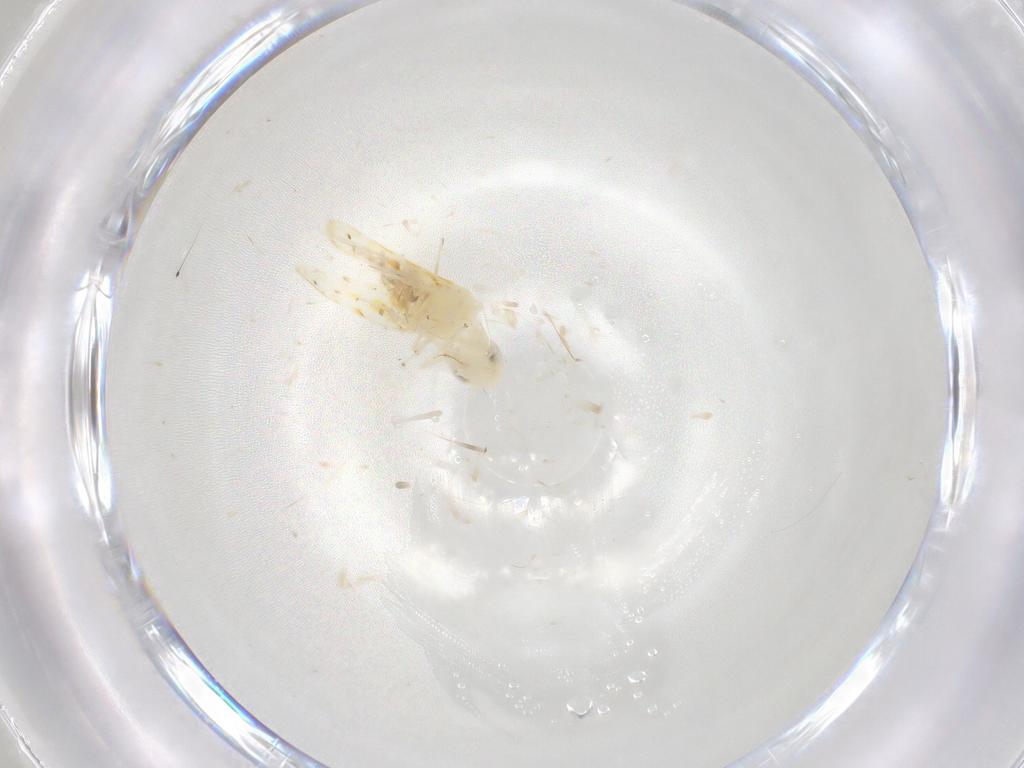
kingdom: Animalia
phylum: Arthropoda
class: Insecta
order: Hemiptera
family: Cicadellidae
